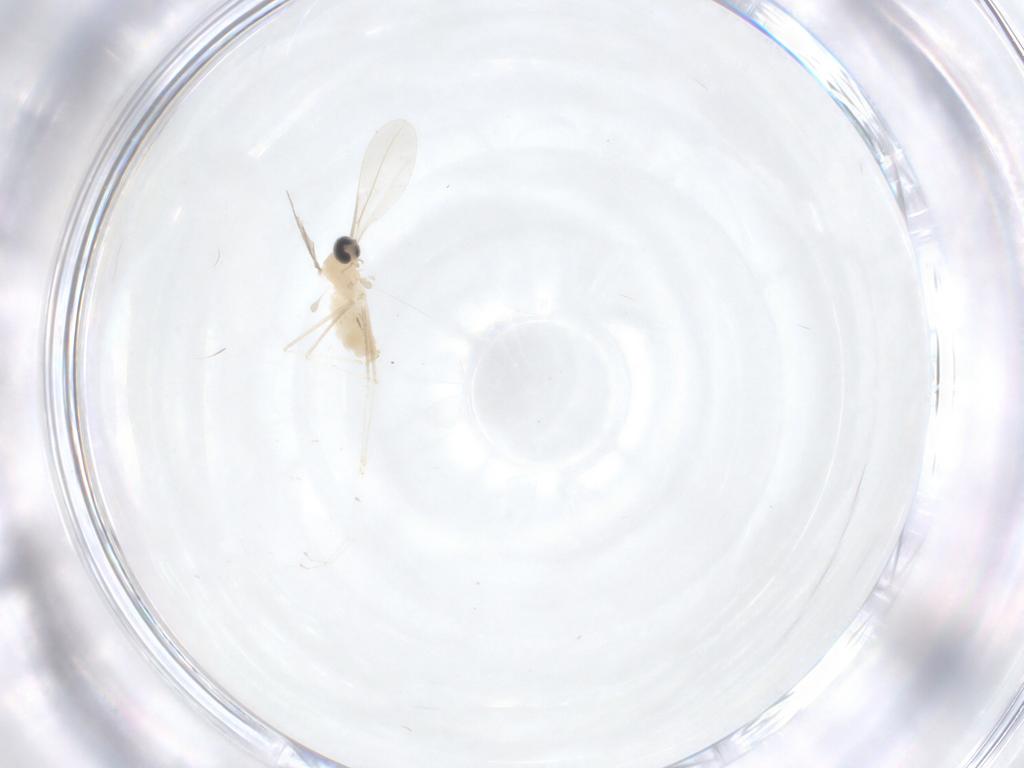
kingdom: Animalia
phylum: Arthropoda
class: Insecta
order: Diptera
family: Cecidomyiidae
